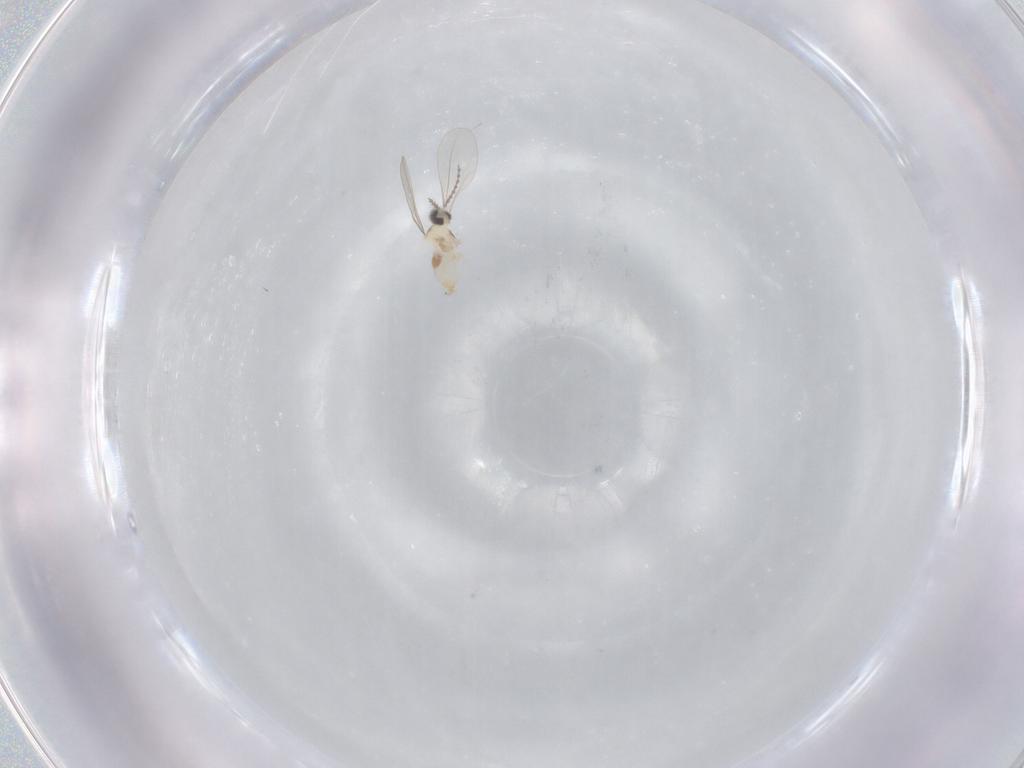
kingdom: Animalia
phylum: Arthropoda
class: Insecta
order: Diptera
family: Cecidomyiidae
